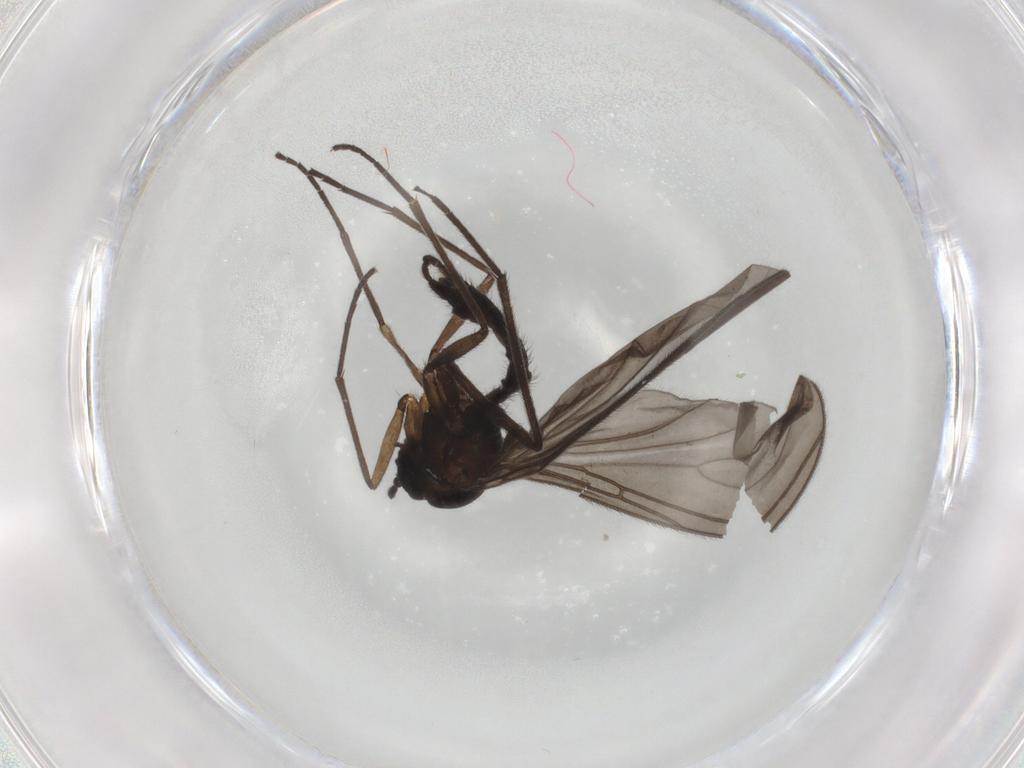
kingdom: Animalia
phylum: Arthropoda
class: Insecta
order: Diptera
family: Sciaridae
